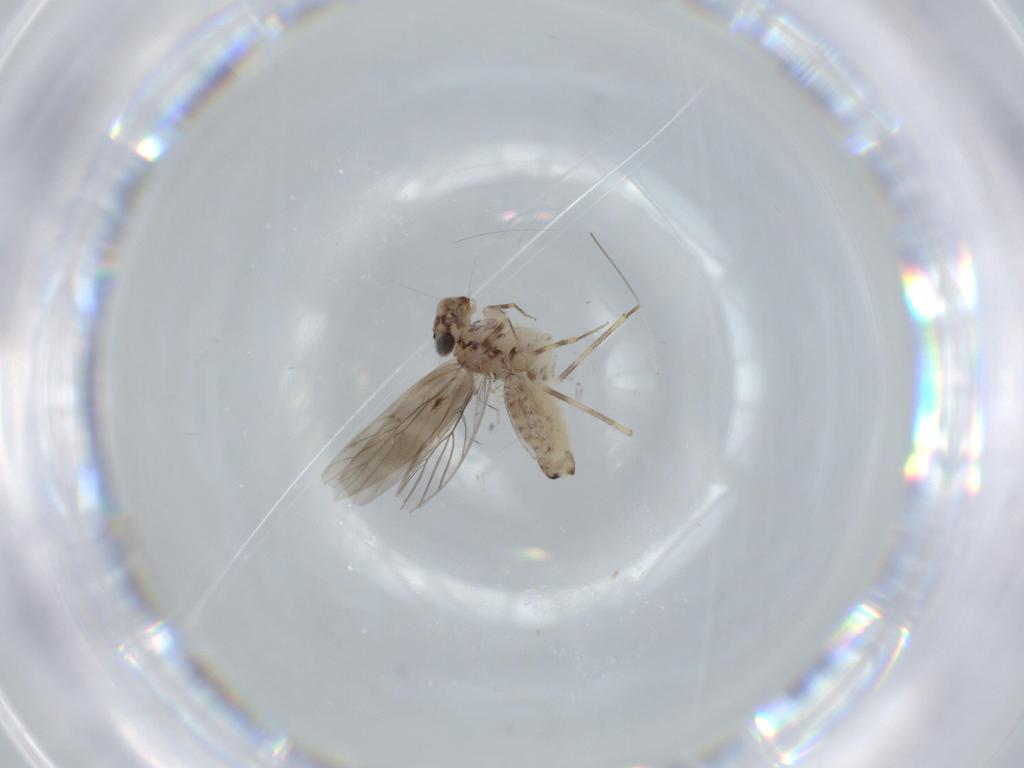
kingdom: Animalia
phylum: Arthropoda
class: Insecta
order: Psocodea
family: Lepidopsocidae
